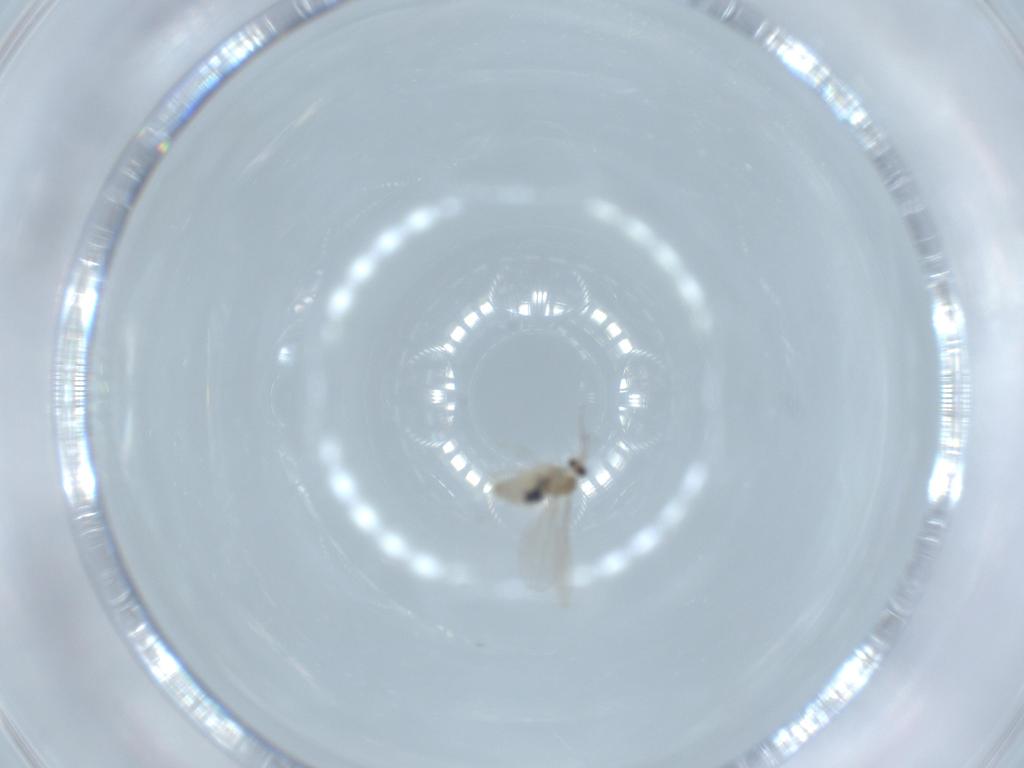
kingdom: Animalia
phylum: Arthropoda
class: Insecta
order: Diptera
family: Cecidomyiidae
